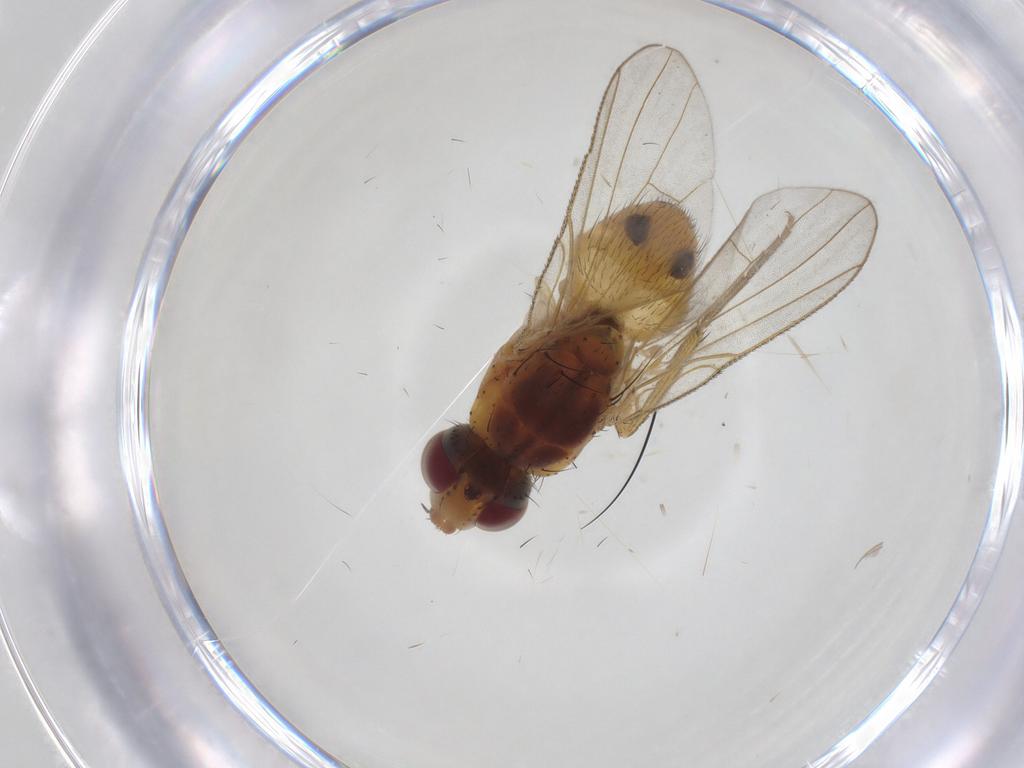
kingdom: Animalia
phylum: Arthropoda
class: Insecta
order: Diptera
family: Muscidae
